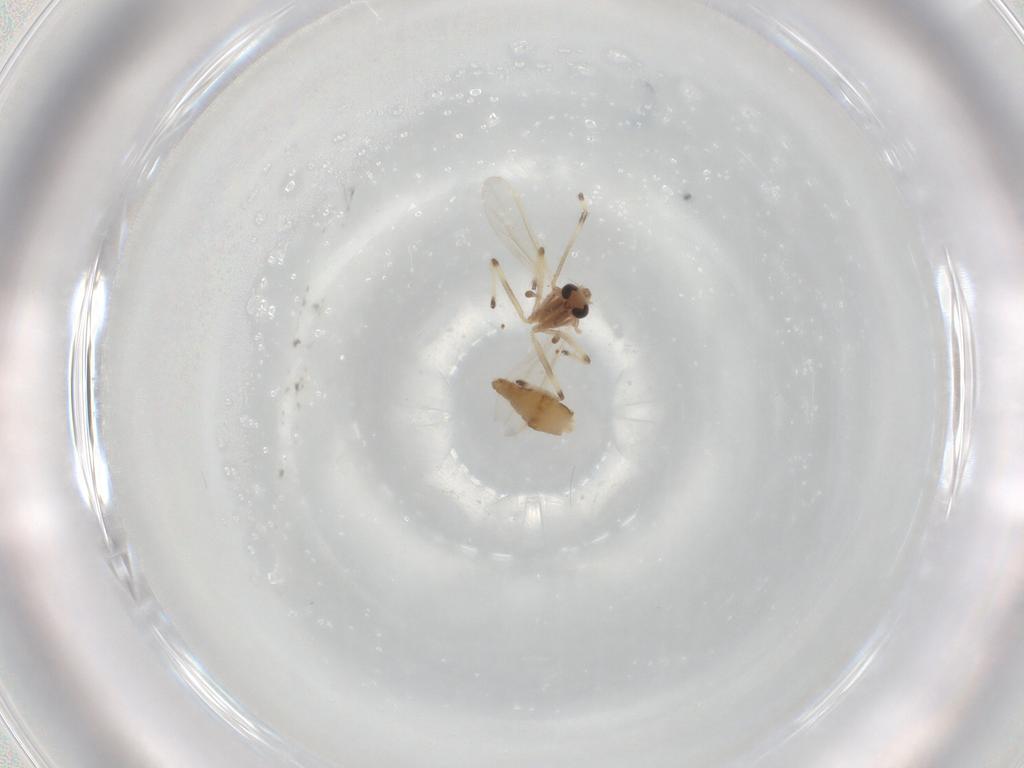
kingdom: Animalia
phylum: Arthropoda
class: Insecta
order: Diptera
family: Chironomidae
